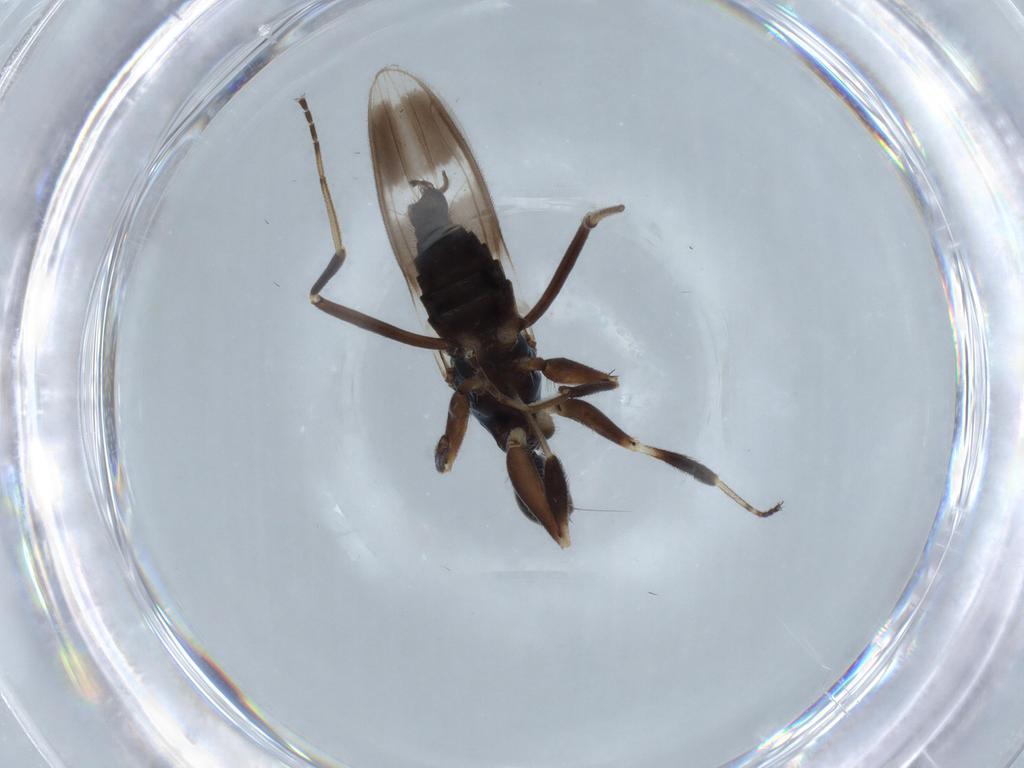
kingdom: Animalia
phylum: Arthropoda
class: Insecta
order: Diptera
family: Hybotidae
